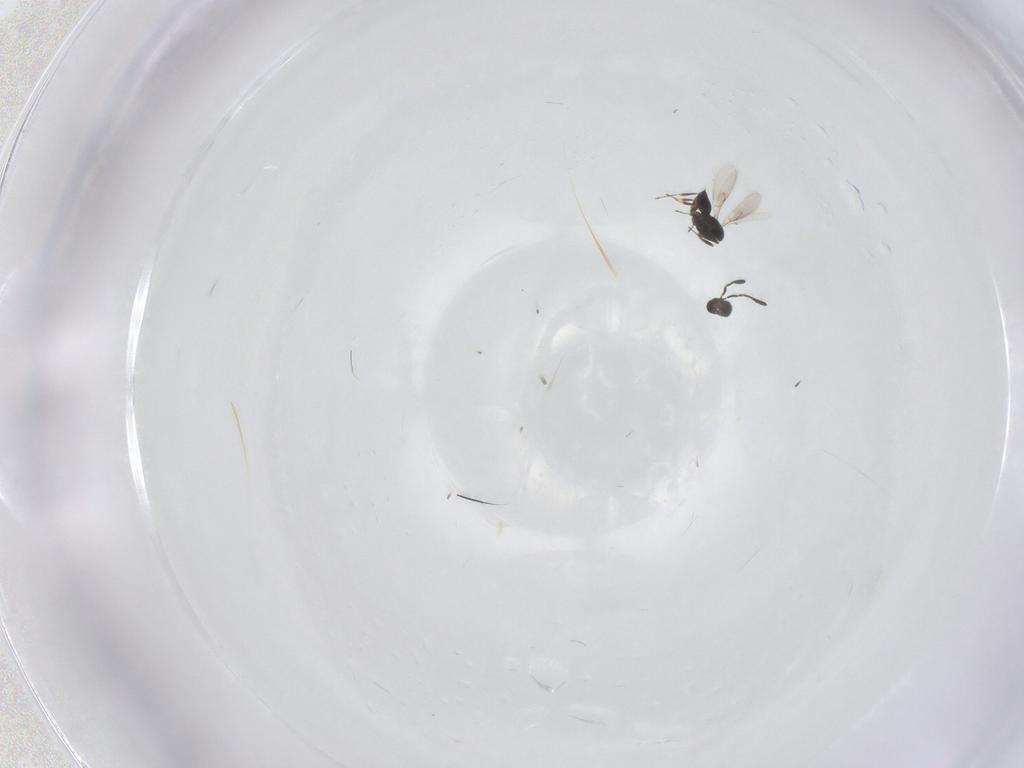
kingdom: Animalia
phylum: Arthropoda
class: Insecta
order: Hymenoptera
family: Scelionidae
